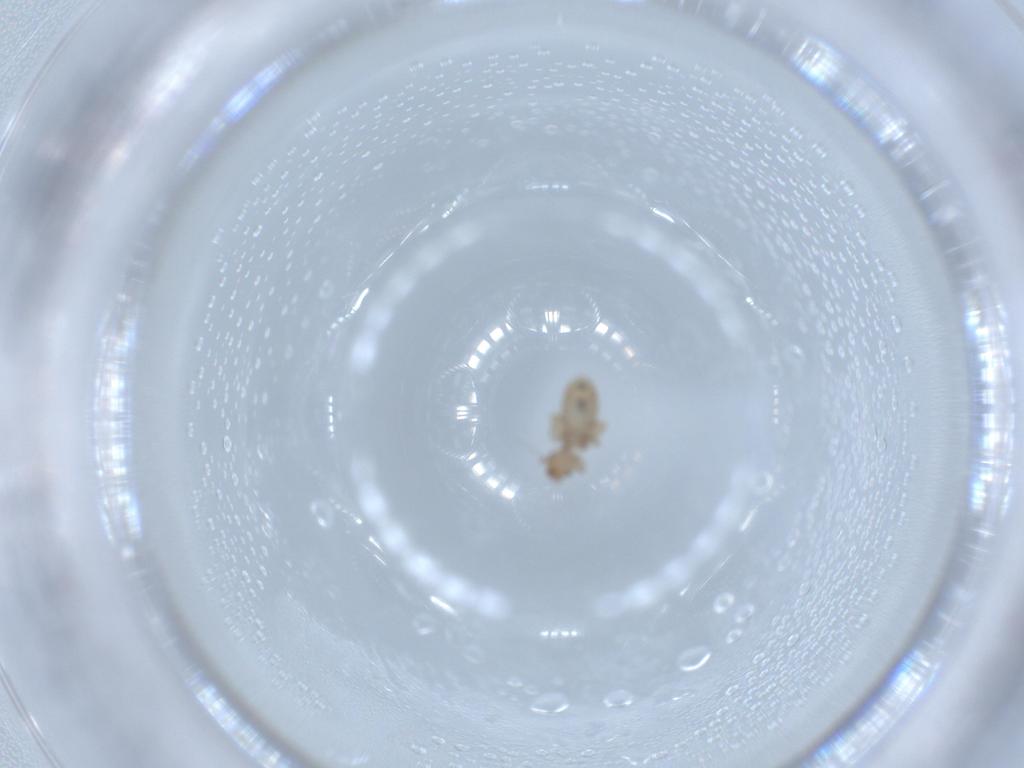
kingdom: Animalia
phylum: Arthropoda
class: Insecta
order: Psocodea
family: Liposcelididae
